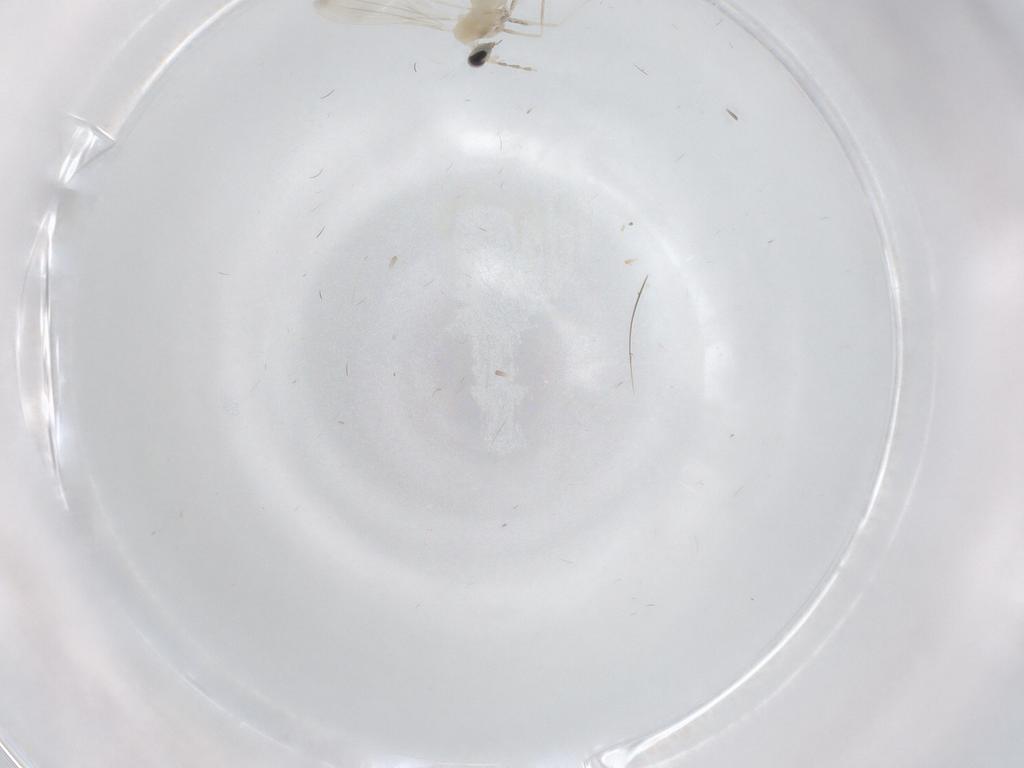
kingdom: Animalia
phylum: Arthropoda
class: Insecta
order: Diptera
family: Cecidomyiidae
